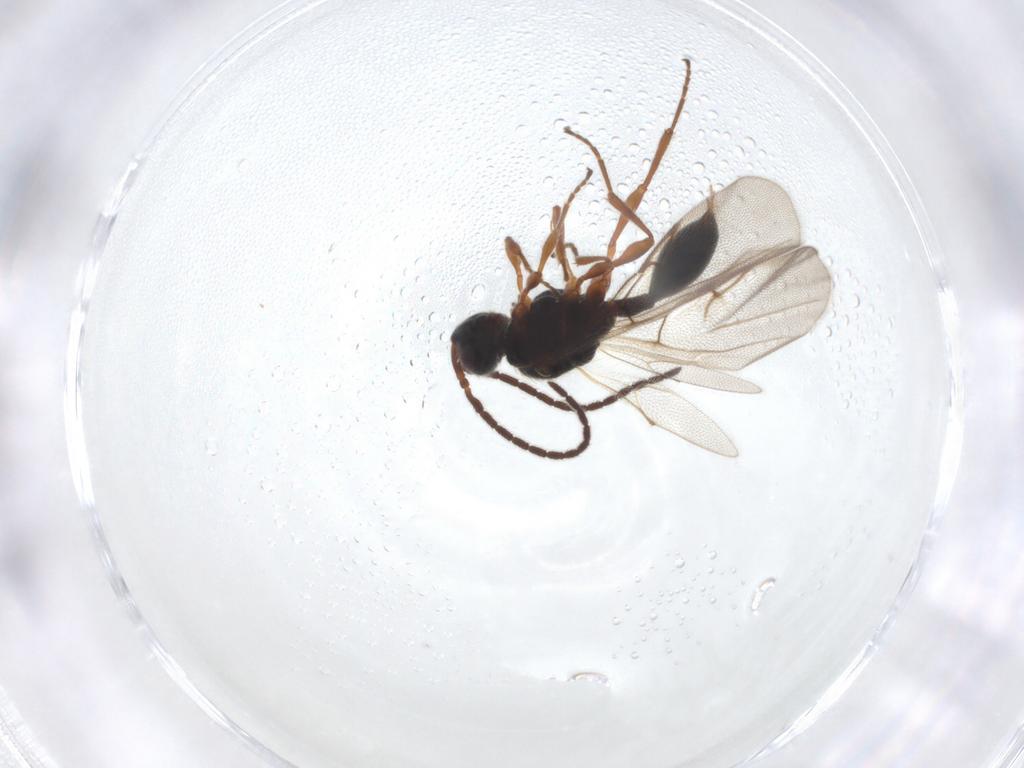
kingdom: Animalia
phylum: Arthropoda
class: Insecta
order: Hymenoptera
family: Diapriidae
